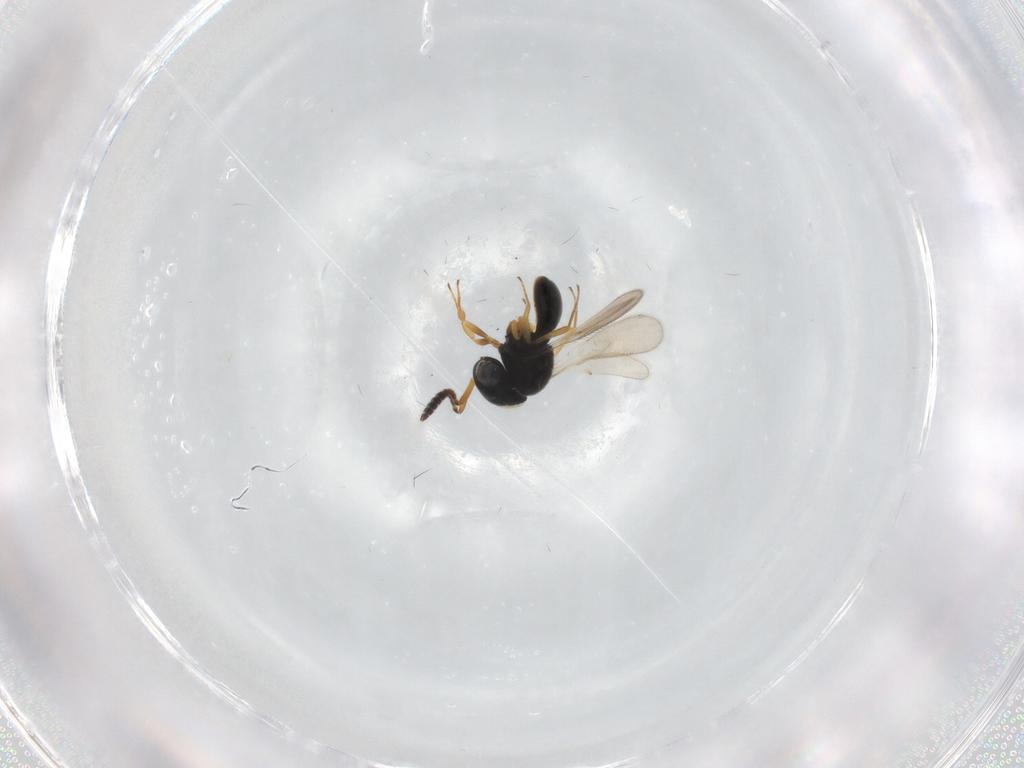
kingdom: Animalia
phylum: Arthropoda
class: Insecta
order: Hymenoptera
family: Scelionidae
